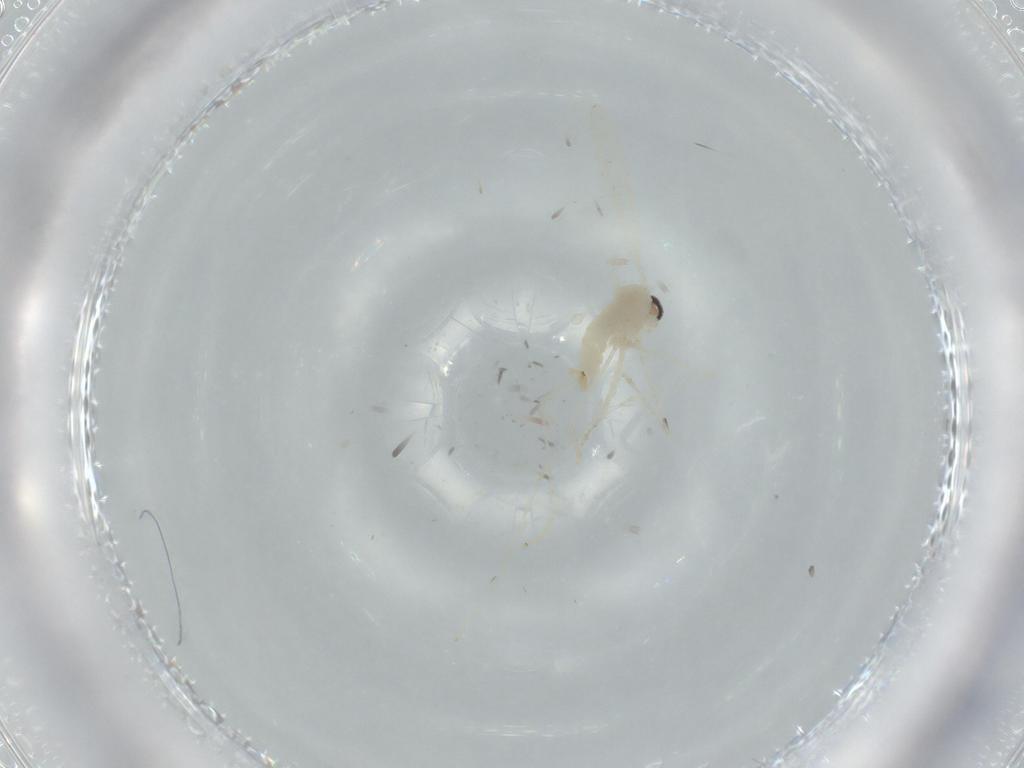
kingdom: Animalia
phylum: Arthropoda
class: Insecta
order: Diptera
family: Cecidomyiidae
